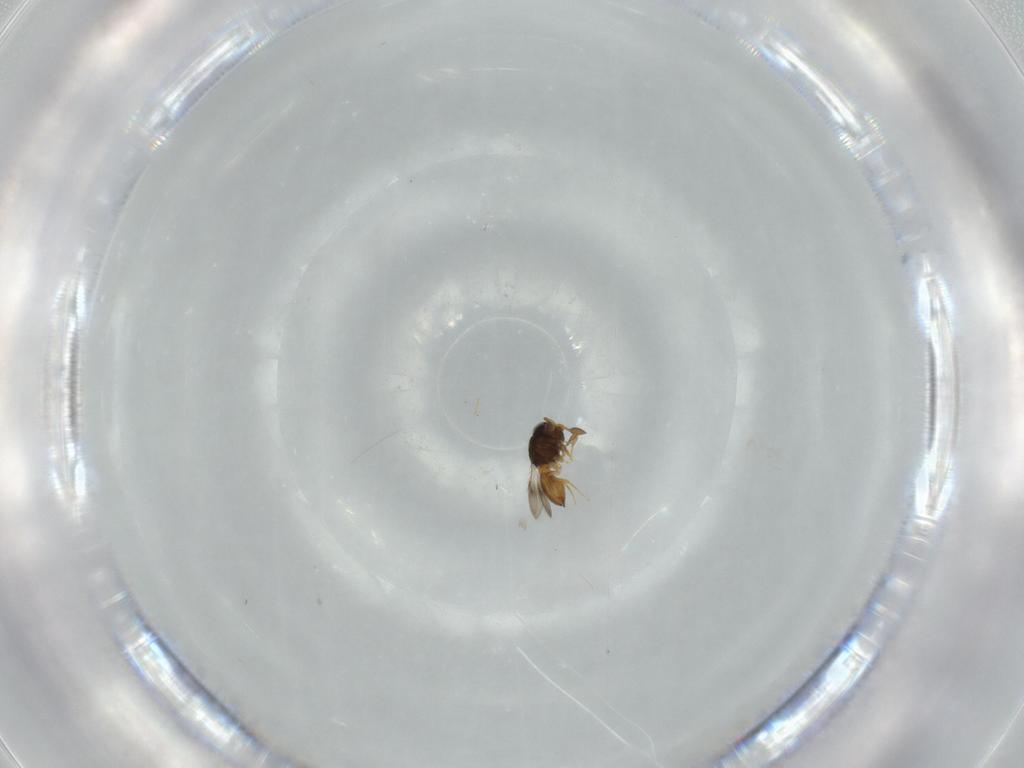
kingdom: Animalia
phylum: Arthropoda
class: Insecta
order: Hymenoptera
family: Scelionidae
